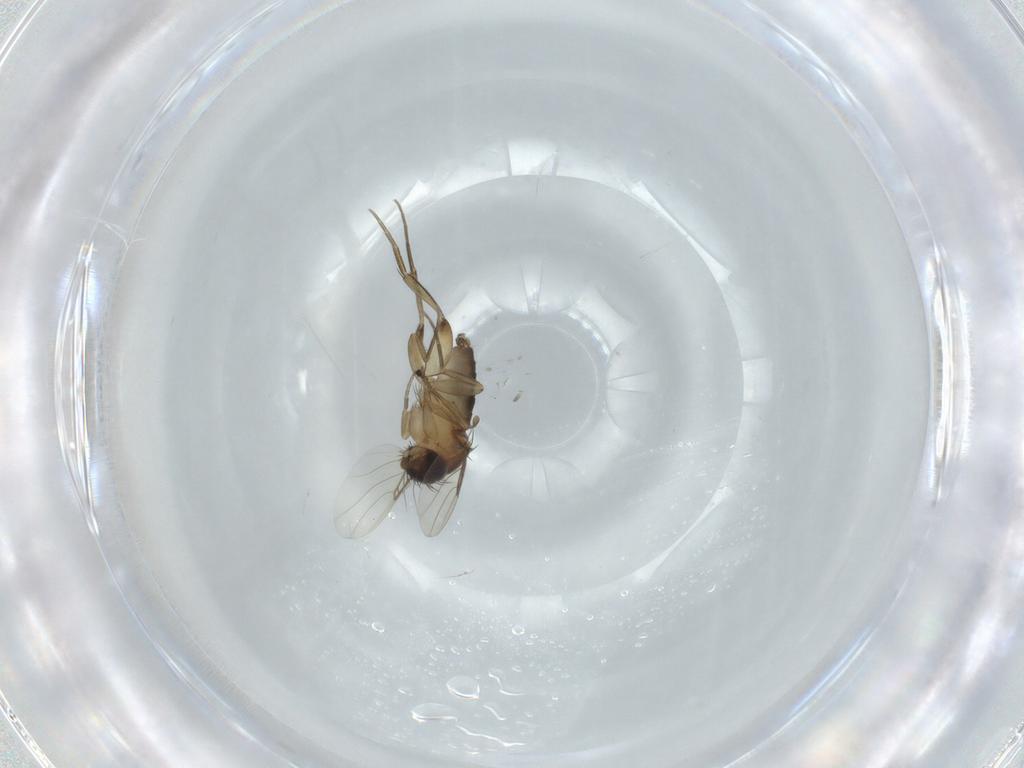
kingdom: Animalia
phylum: Arthropoda
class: Insecta
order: Diptera
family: Phoridae
